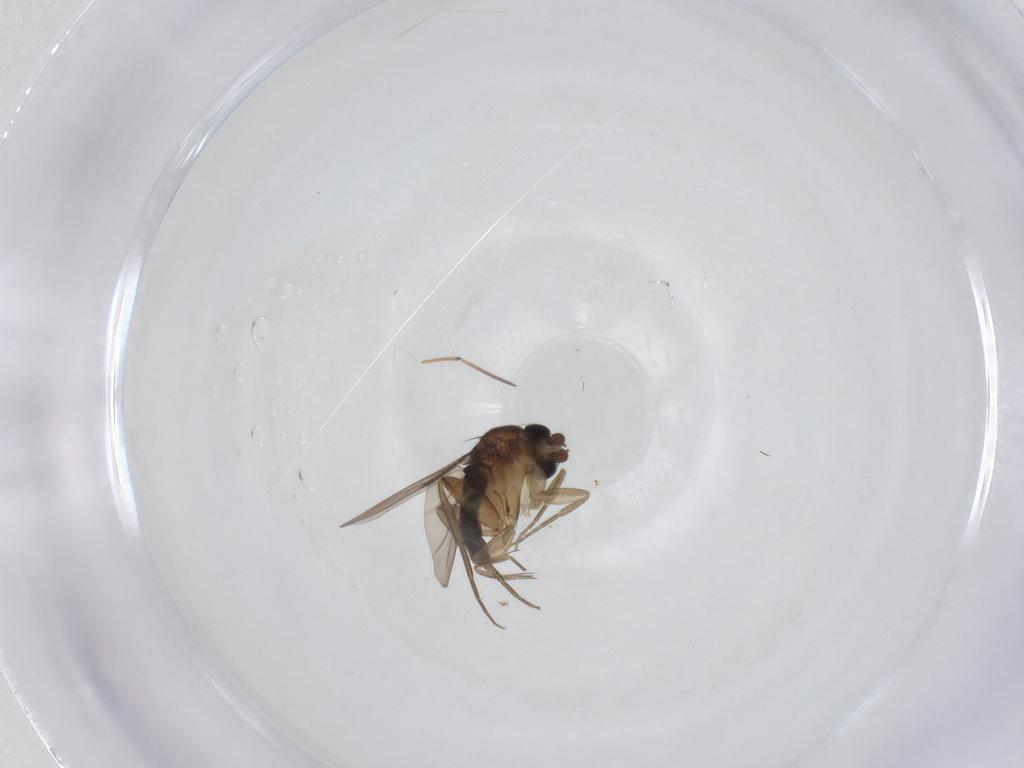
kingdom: Animalia
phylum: Arthropoda
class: Insecta
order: Diptera
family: Phoridae
